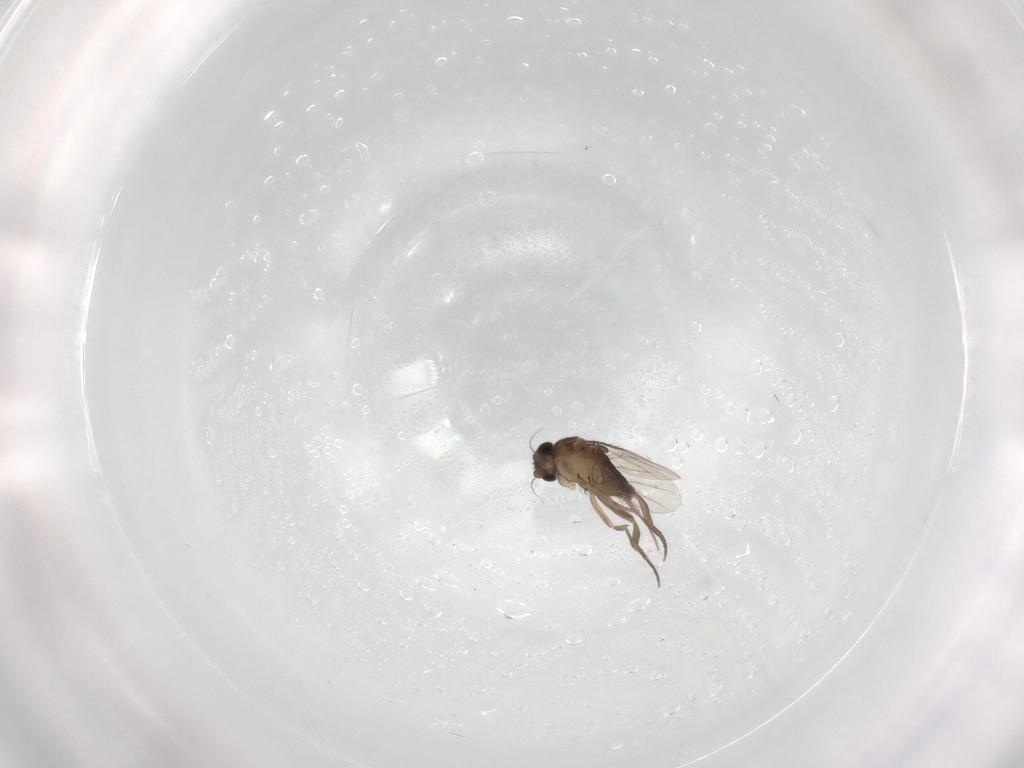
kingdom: Animalia
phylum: Arthropoda
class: Insecta
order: Diptera
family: Phoridae
